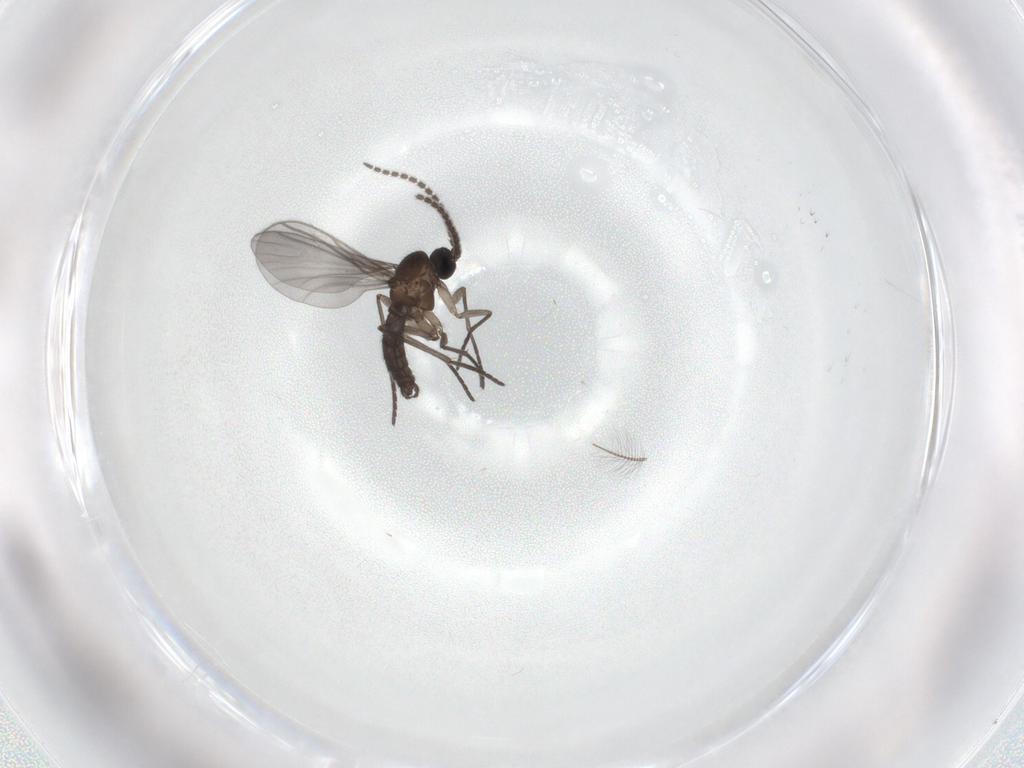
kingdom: Animalia
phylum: Arthropoda
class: Insecta
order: Diptera
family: Chironomidae
